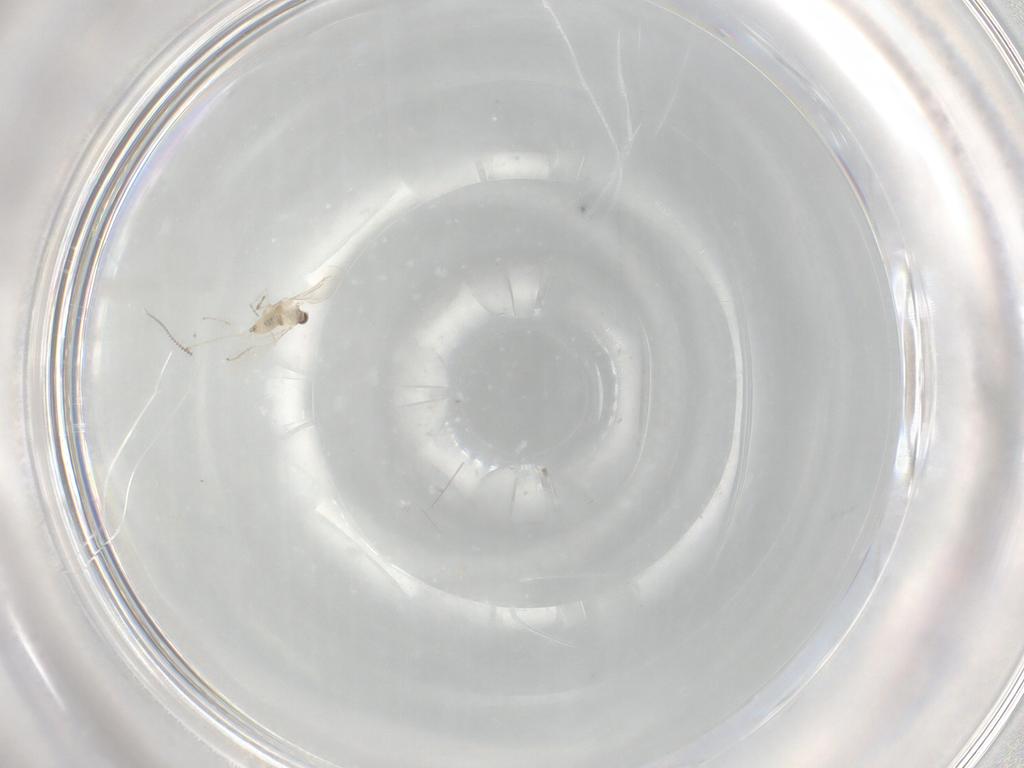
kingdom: Animalia
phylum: Arthropoda
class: Insecta
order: Diptera
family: Cecidomyiidae
